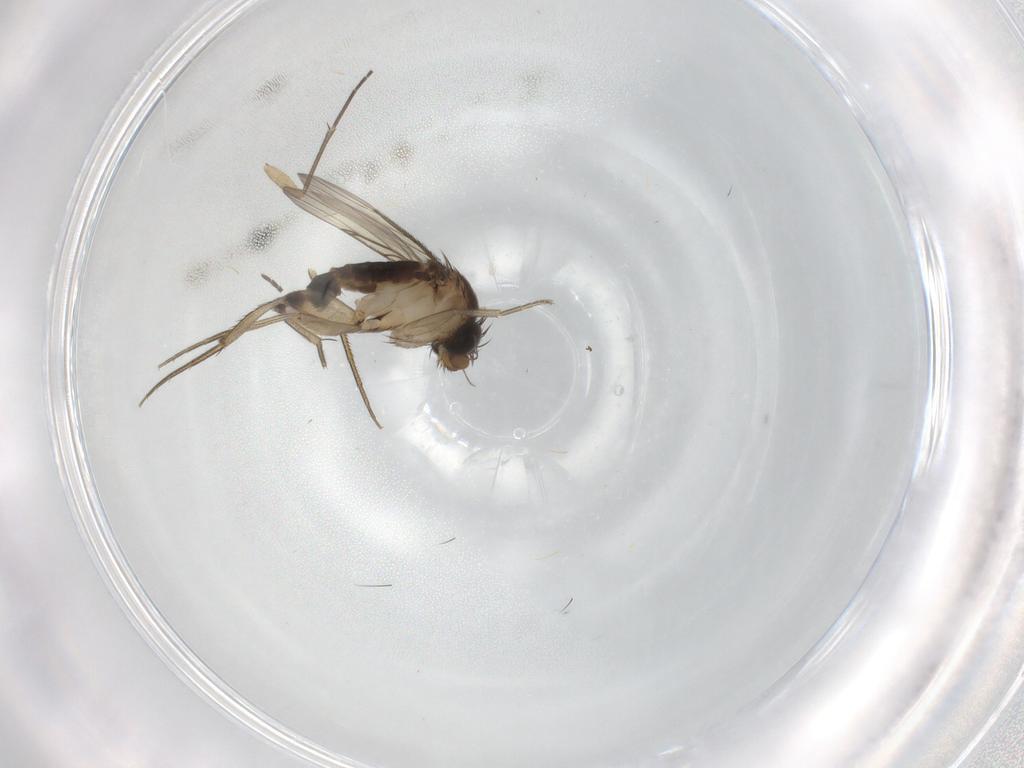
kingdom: Animalia
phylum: Arthropoda
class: Insecta
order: Diptera
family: Phoridae
